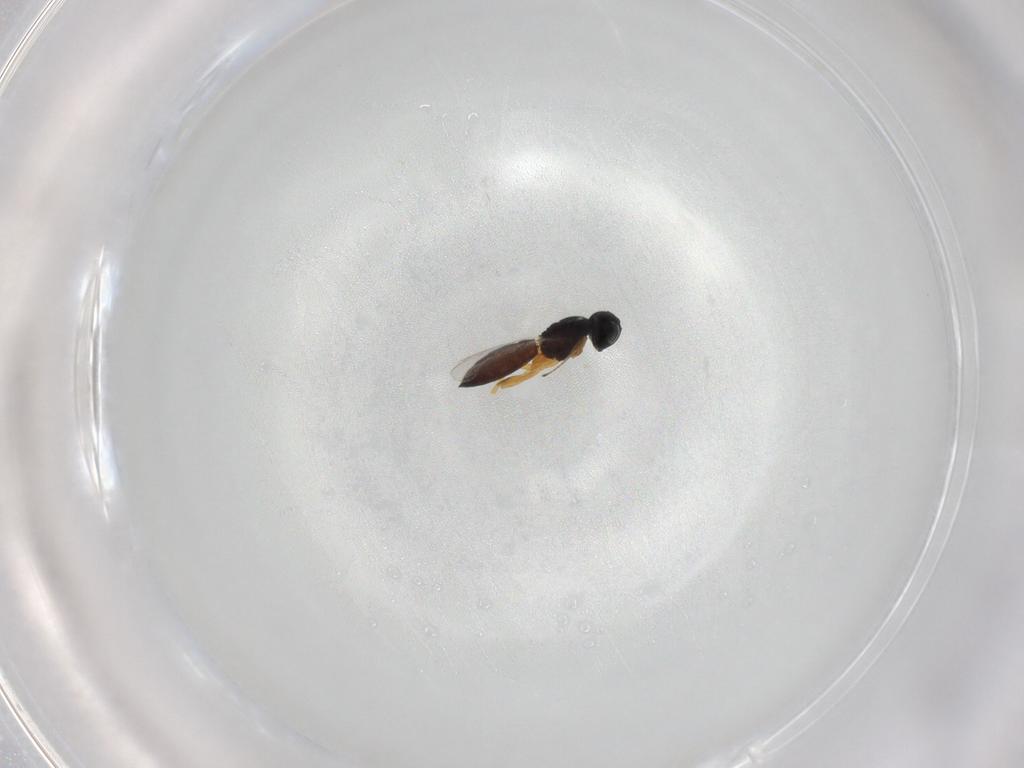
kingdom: Animalia
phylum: Arthropoda
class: Insecta
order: Hymenoptera
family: Scelionidae
